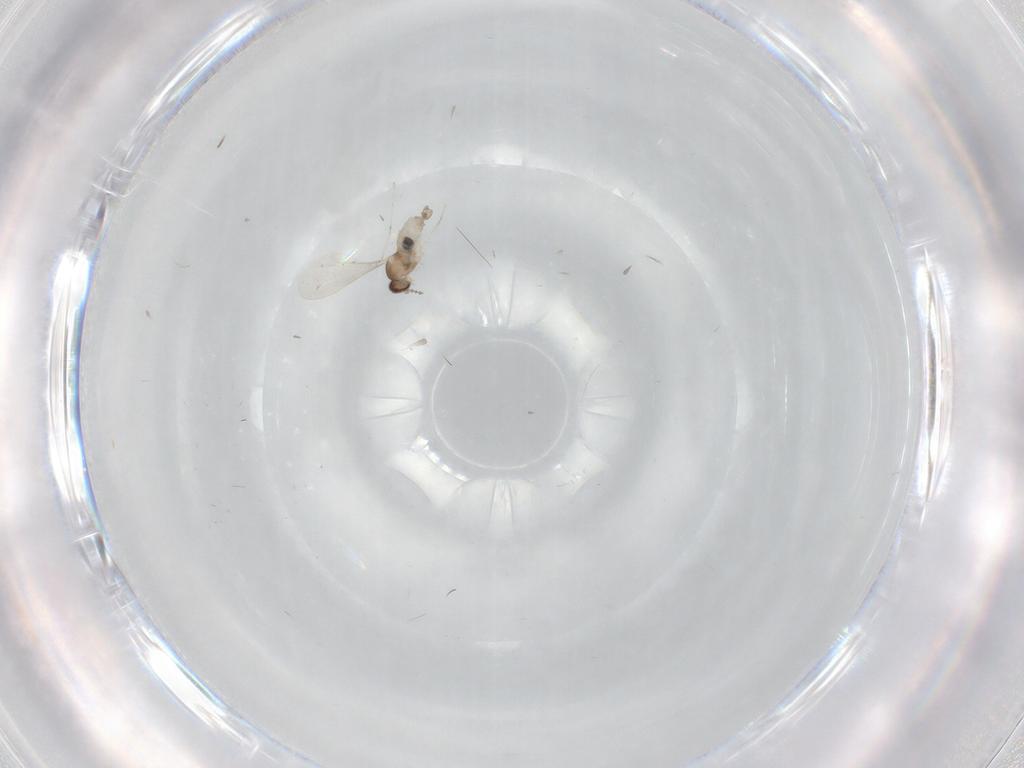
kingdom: Animalia
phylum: Arthropoda
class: Insecta
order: Diptera
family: Cecidomyiidae
